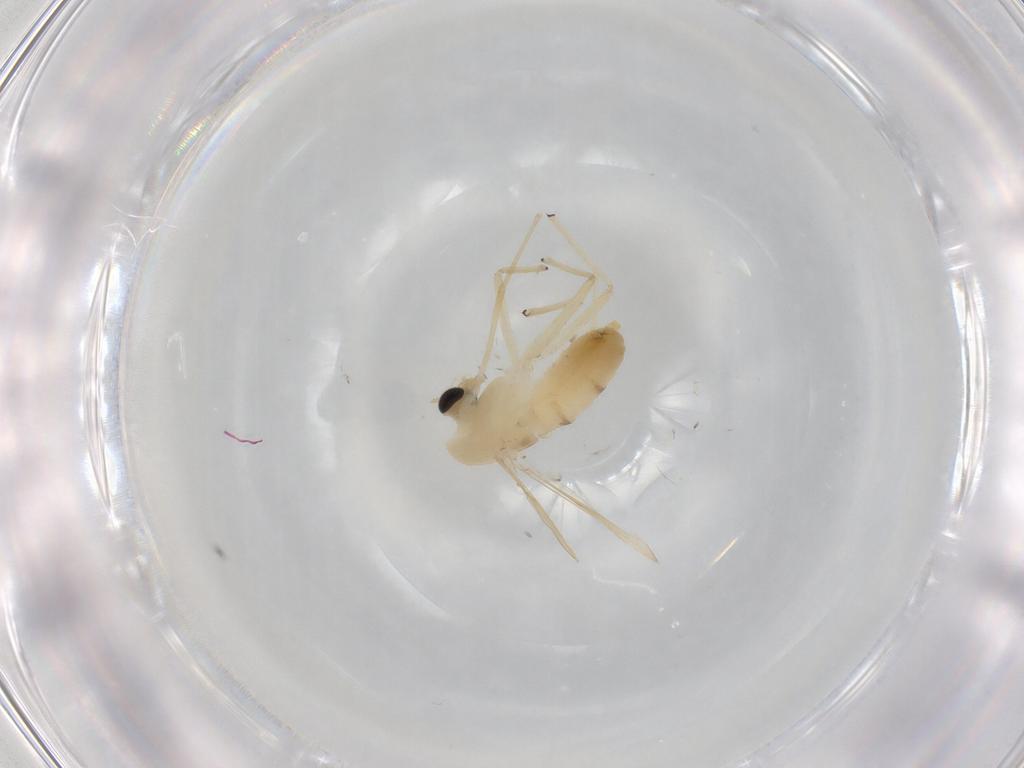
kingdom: Animalia
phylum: Arthropoda
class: Insecta
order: Diptera
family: Chironomidae
